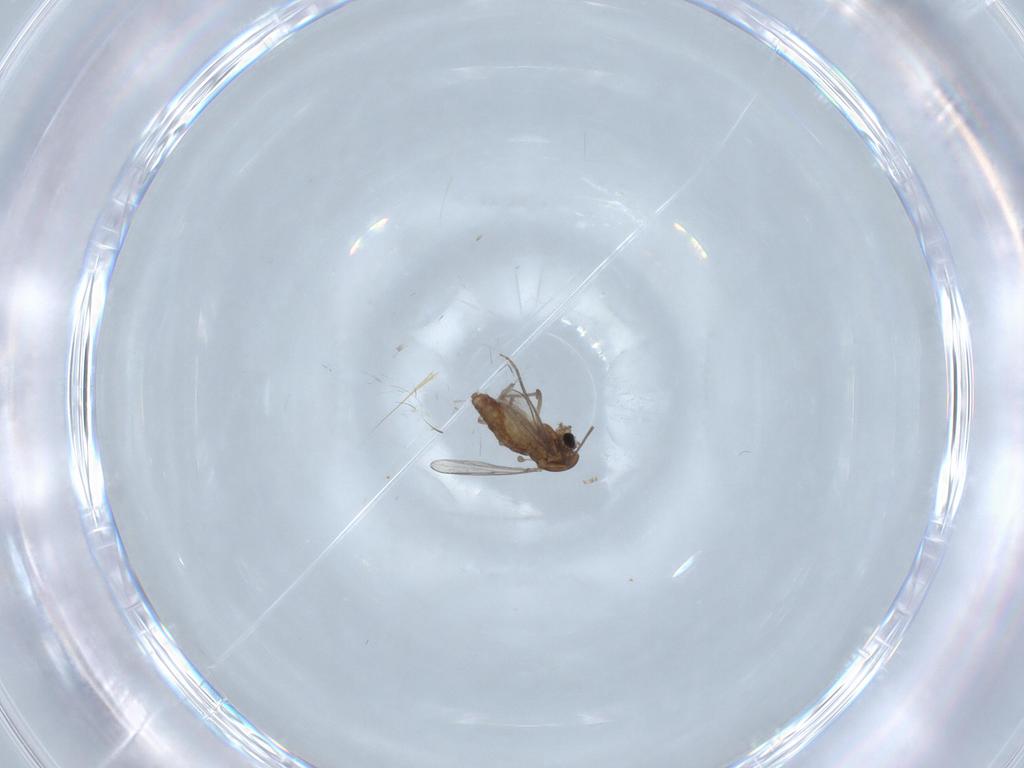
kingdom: Animalia
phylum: Arthropoda
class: Insecta
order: Diptera
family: Chironomidae
